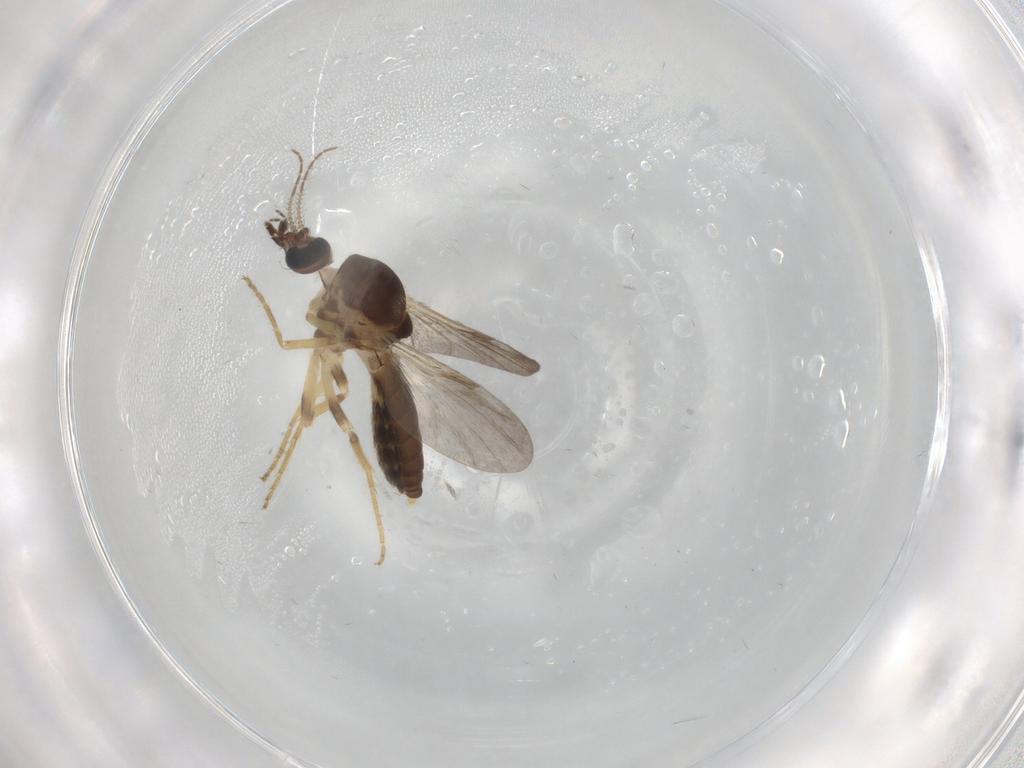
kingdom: Animalia
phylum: Arthropoda
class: Insecta
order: Diptera
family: Ceratopogonidae
